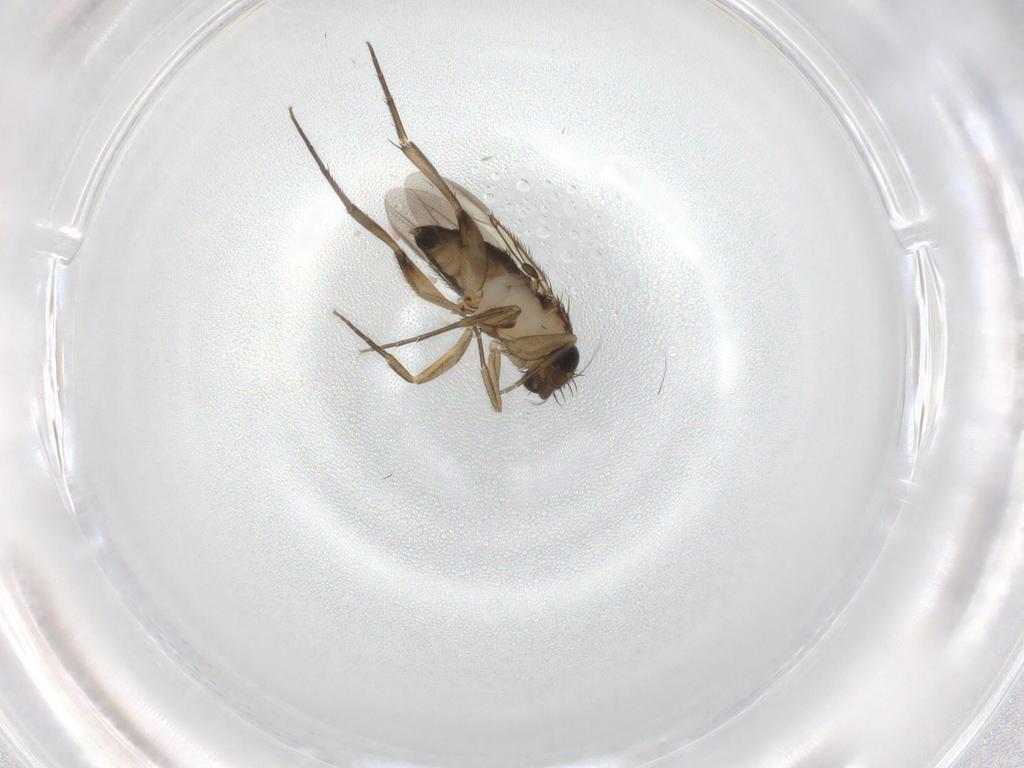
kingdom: Animalia
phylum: Arthropoda
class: Insecta
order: Diptera
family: Phoridae
